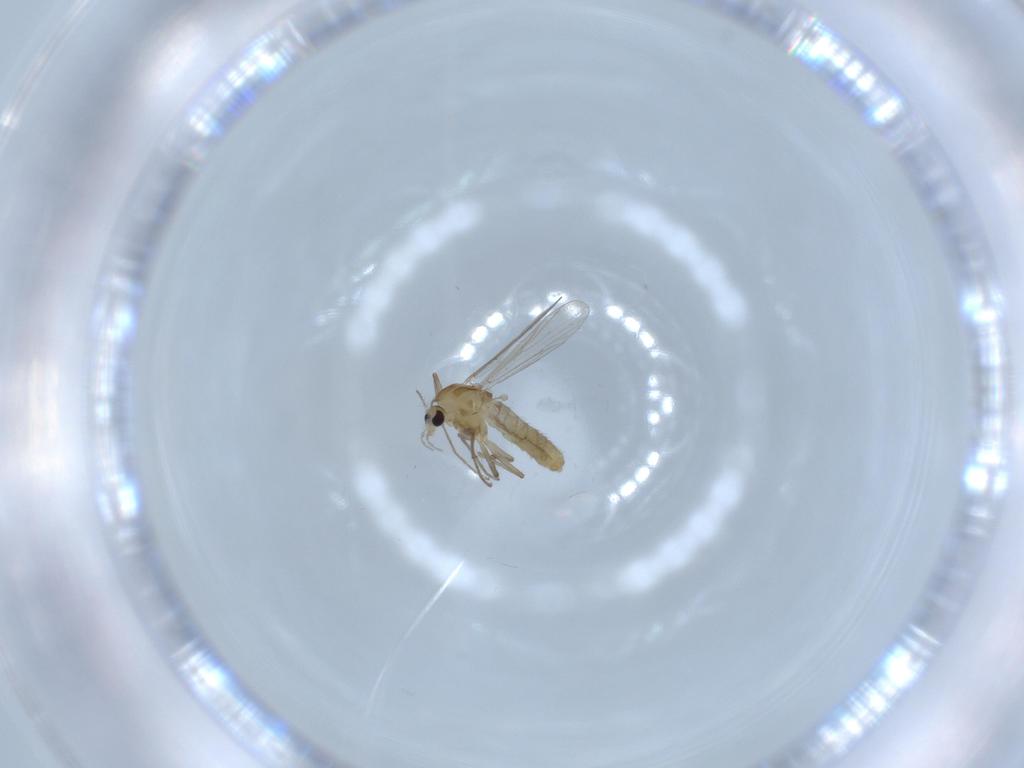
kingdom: Animalia
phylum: Arthropoda
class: Insecta
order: Diptera
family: Chironomidae
